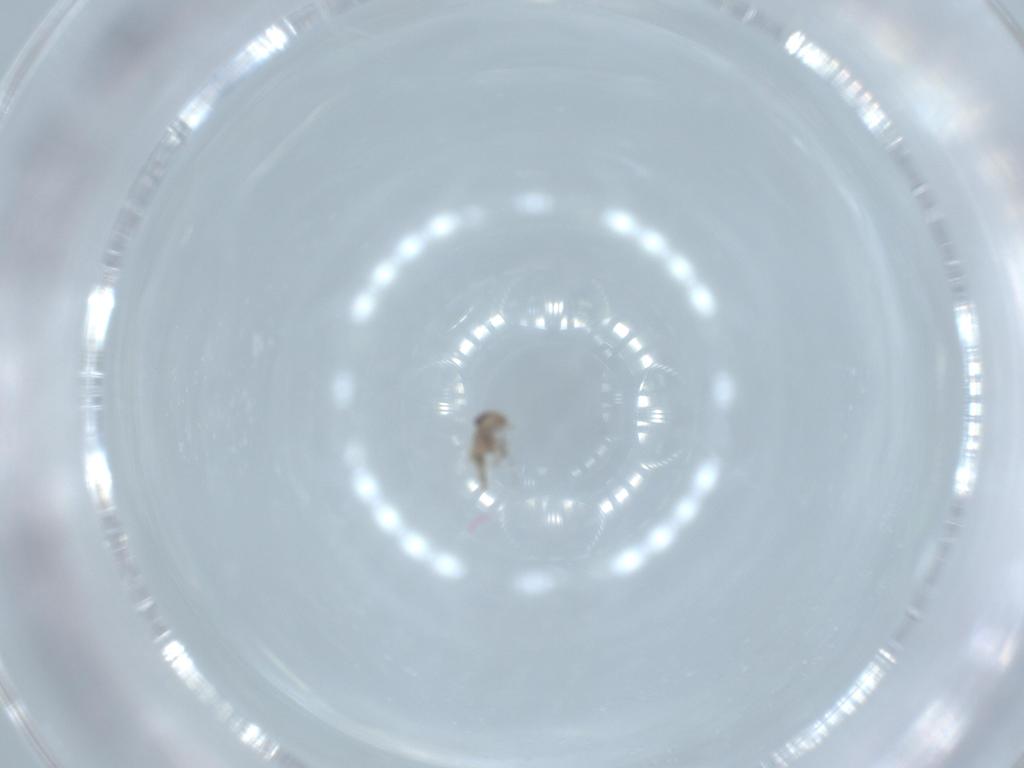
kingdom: Animalia
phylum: Arthropoda
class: Insecta
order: Psocodea
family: Lepidopsocidae
